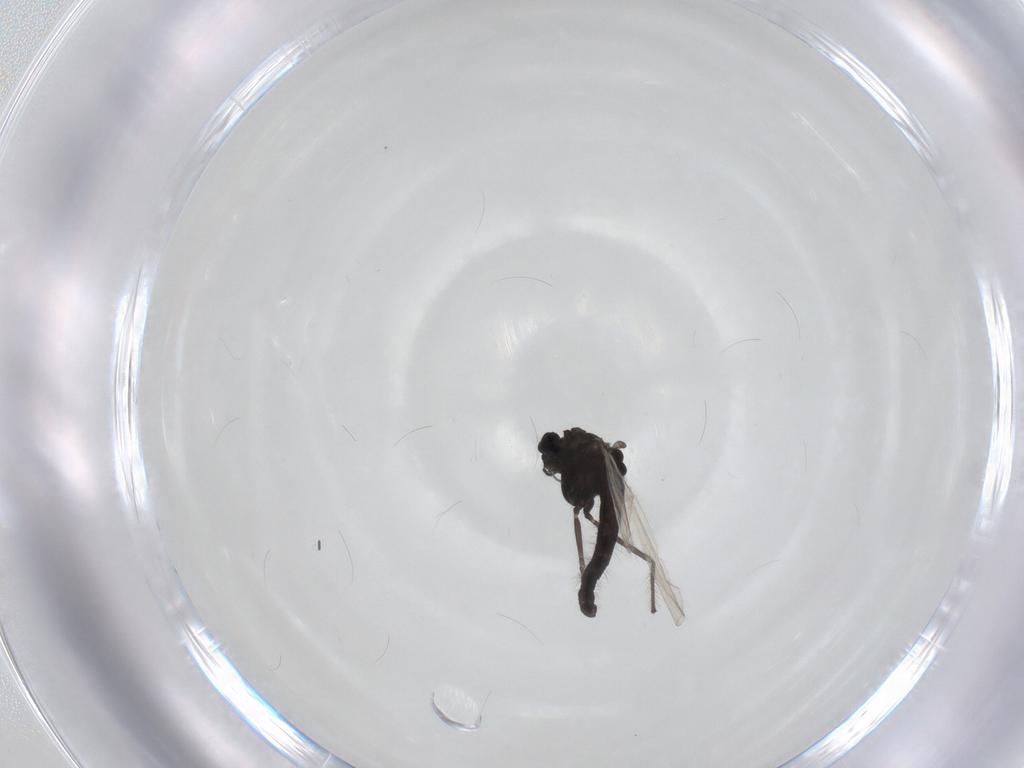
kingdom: Animalia
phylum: Arthropoda
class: Insecta
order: Diptera
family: Chironomidae
